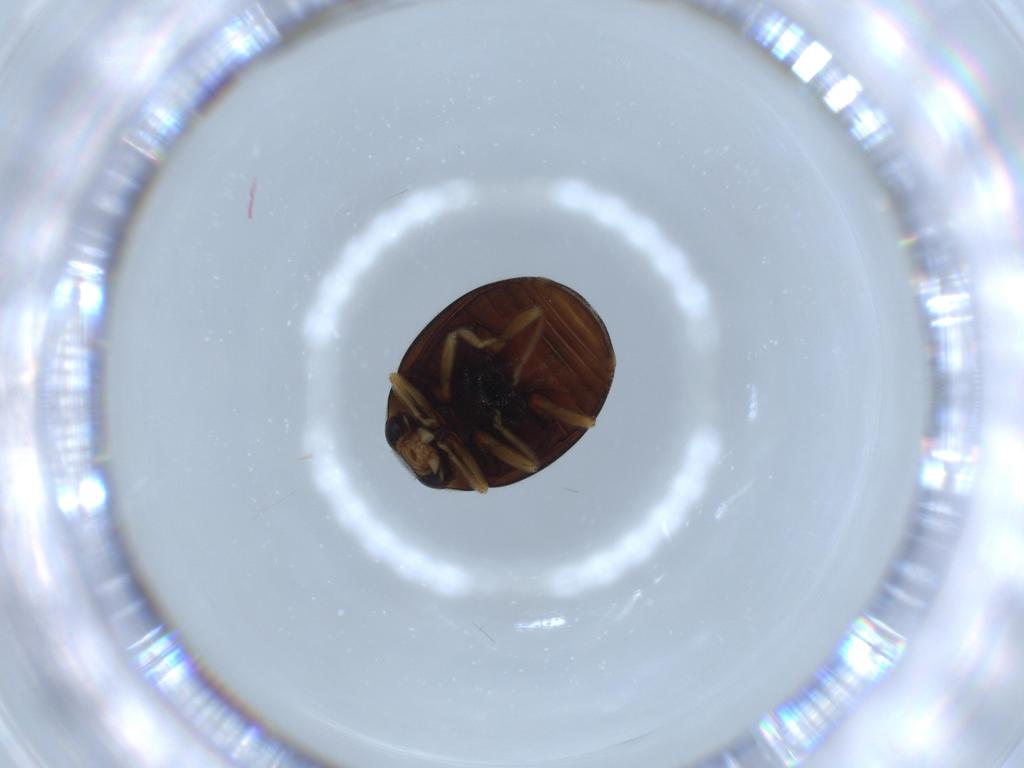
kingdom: Animalia
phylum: Arthropoda
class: Insecta
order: Coleoptera
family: Coccinellidae
